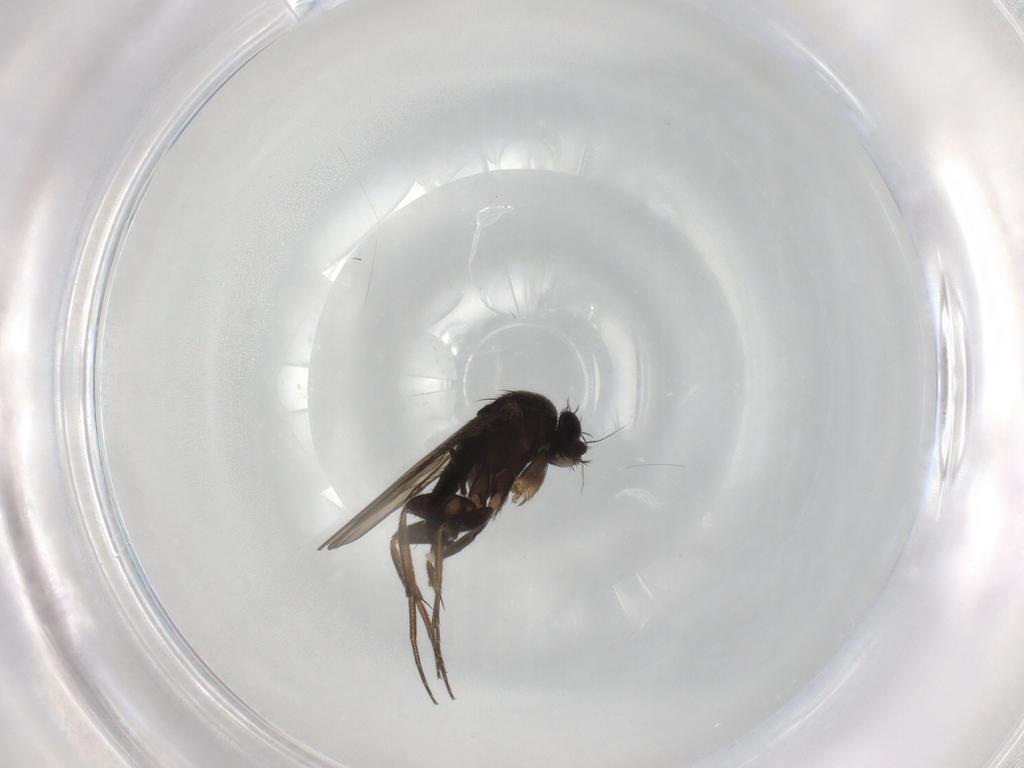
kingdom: Animalia
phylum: Arthropoda
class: Insecta
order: Diptera
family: Phoridae
